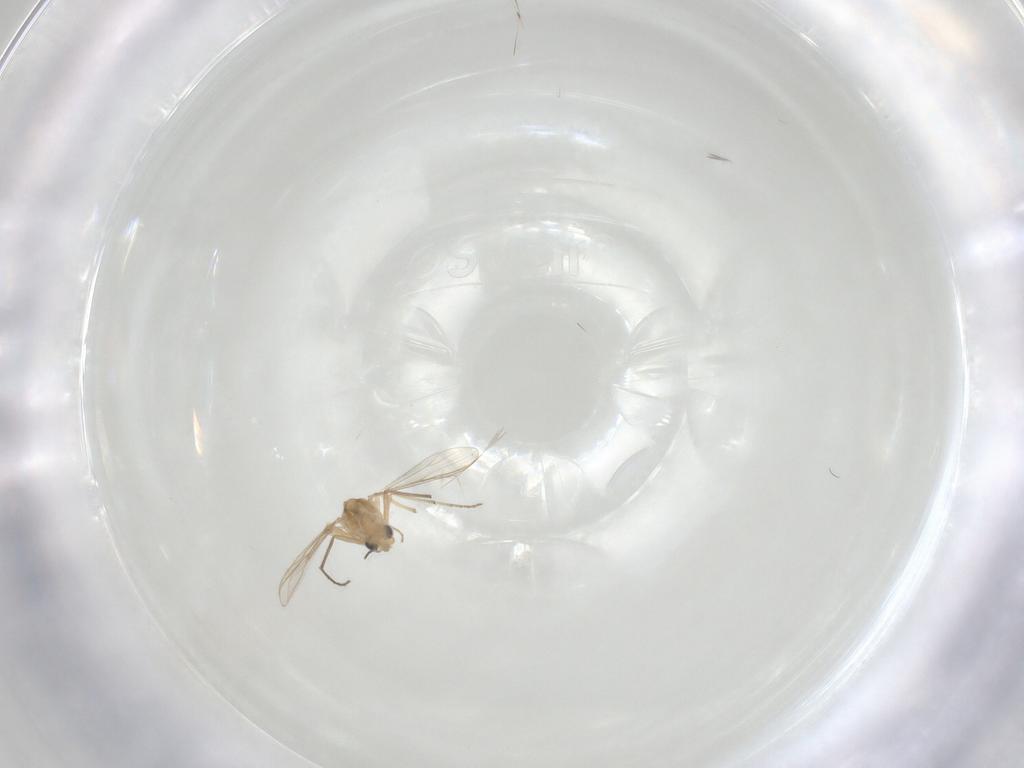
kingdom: Animalia
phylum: Arthropoda
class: Insecta
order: Diptera
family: Chironomidae
